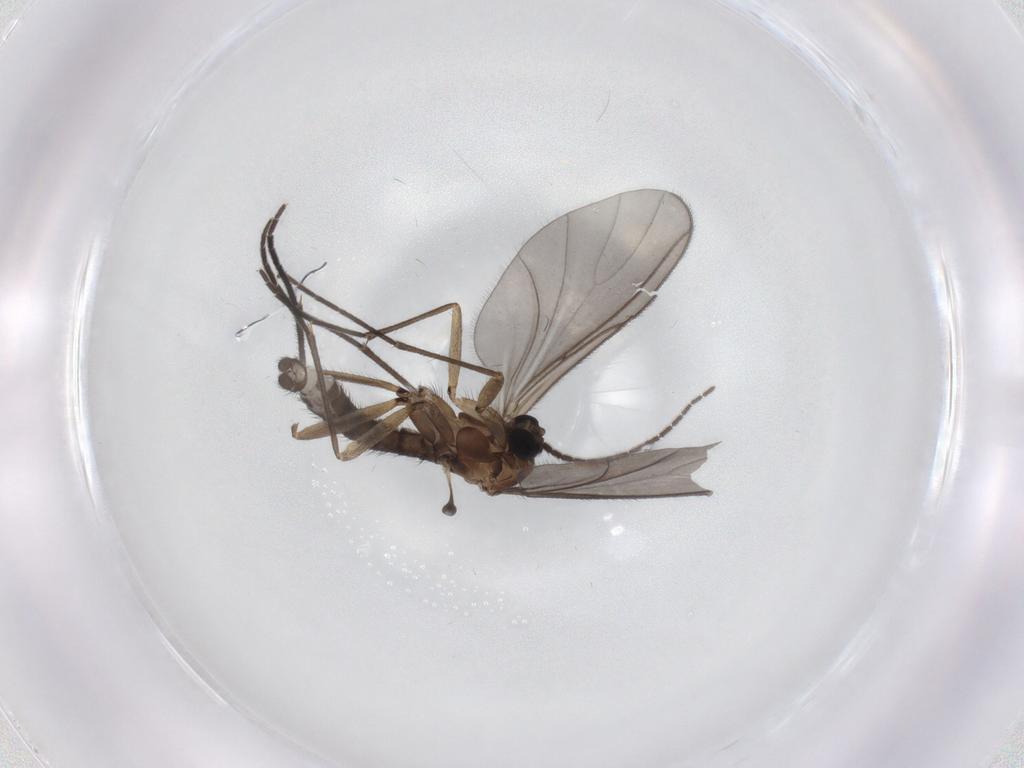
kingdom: Animalia
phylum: Arthropoda
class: Insecta
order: Diptera
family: Sciaridae
